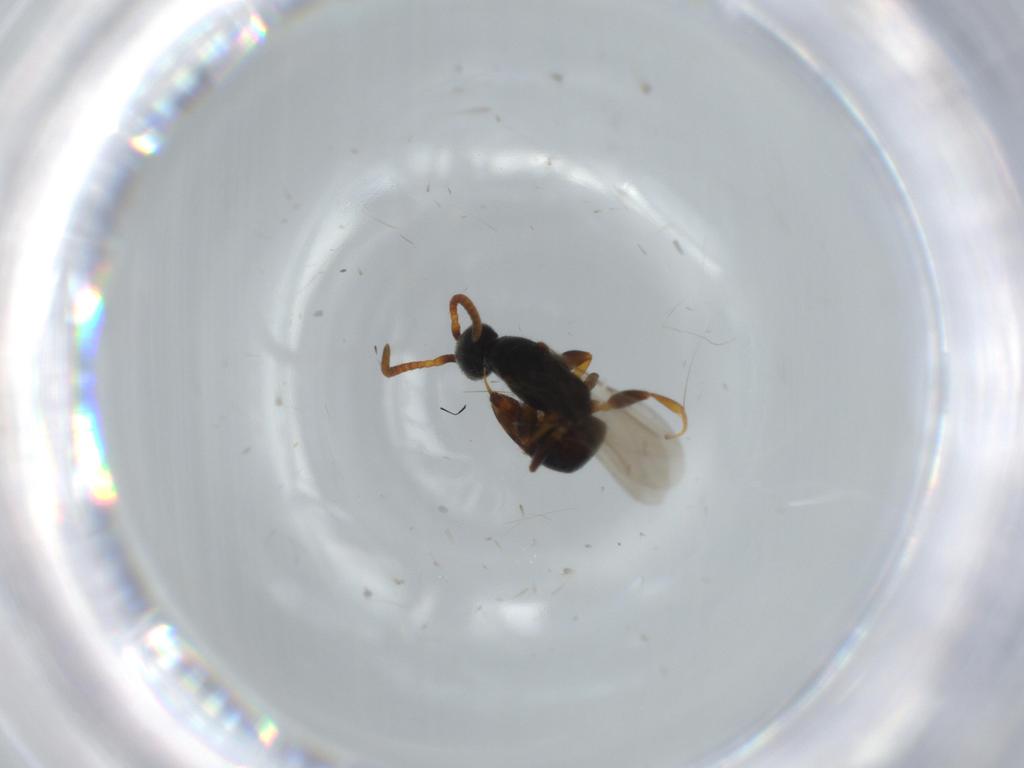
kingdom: Animalia
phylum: Arthropoda
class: Insecta
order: Hymenoptera
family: Bethylidae
